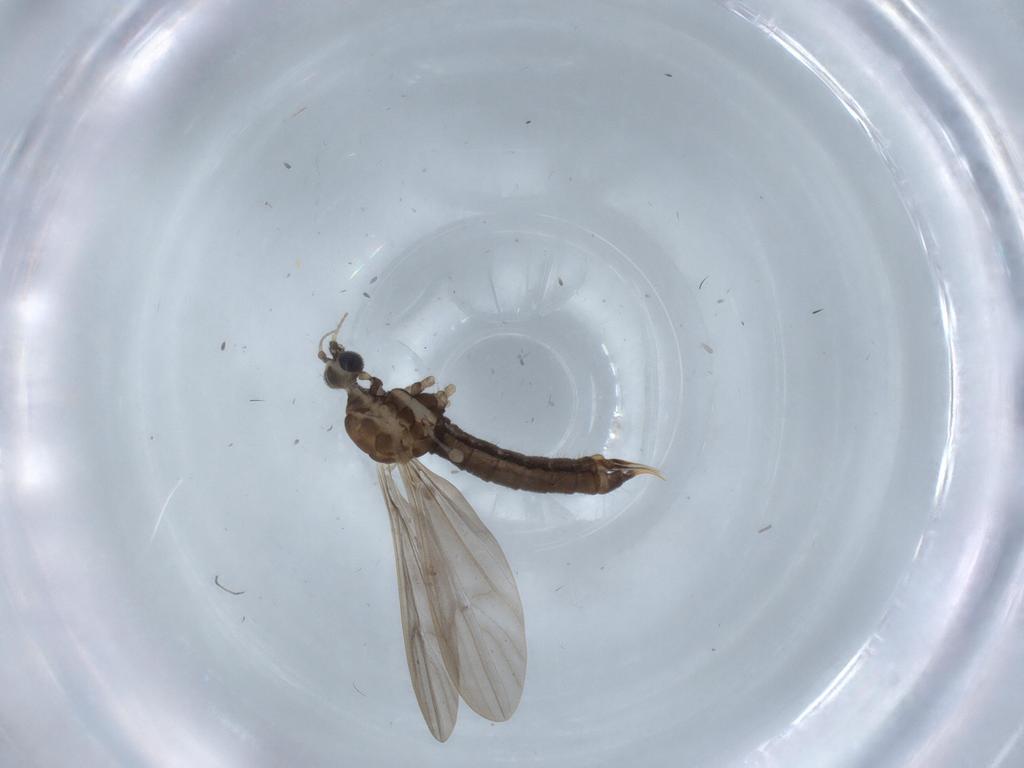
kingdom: Animalia
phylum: Arthropoda
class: Insecta
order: Diptera
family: Ceratopogonidae
